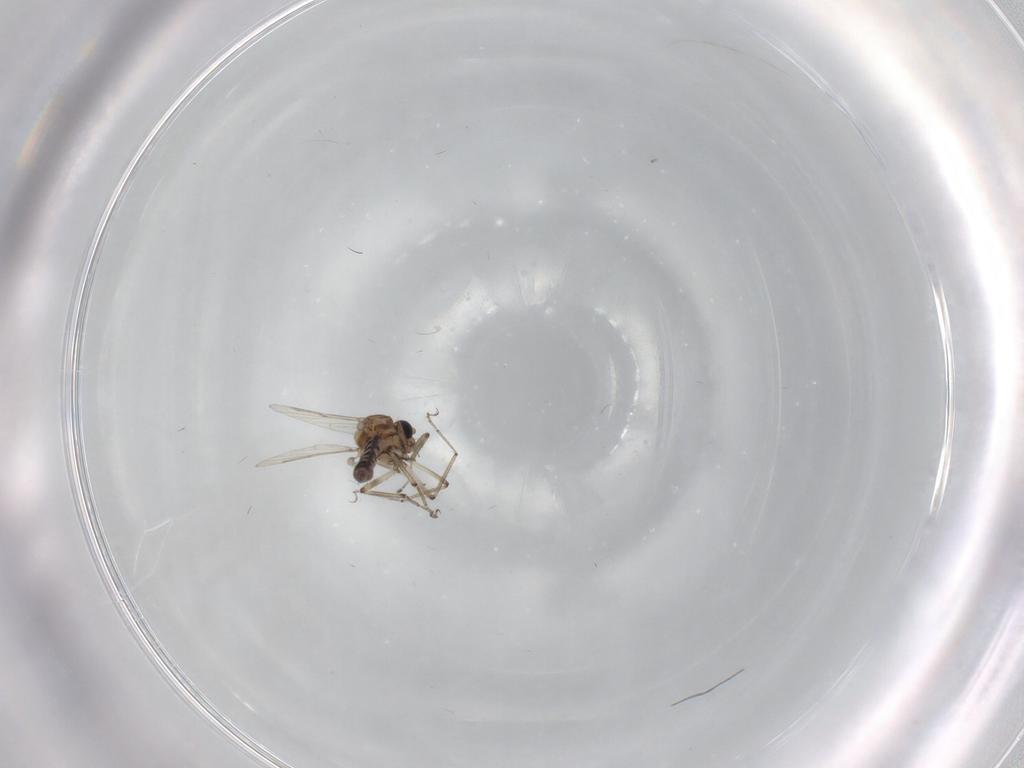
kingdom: Animalia
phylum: Arthropoda
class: Insecta
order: Diptera
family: Ceratopogonidae
